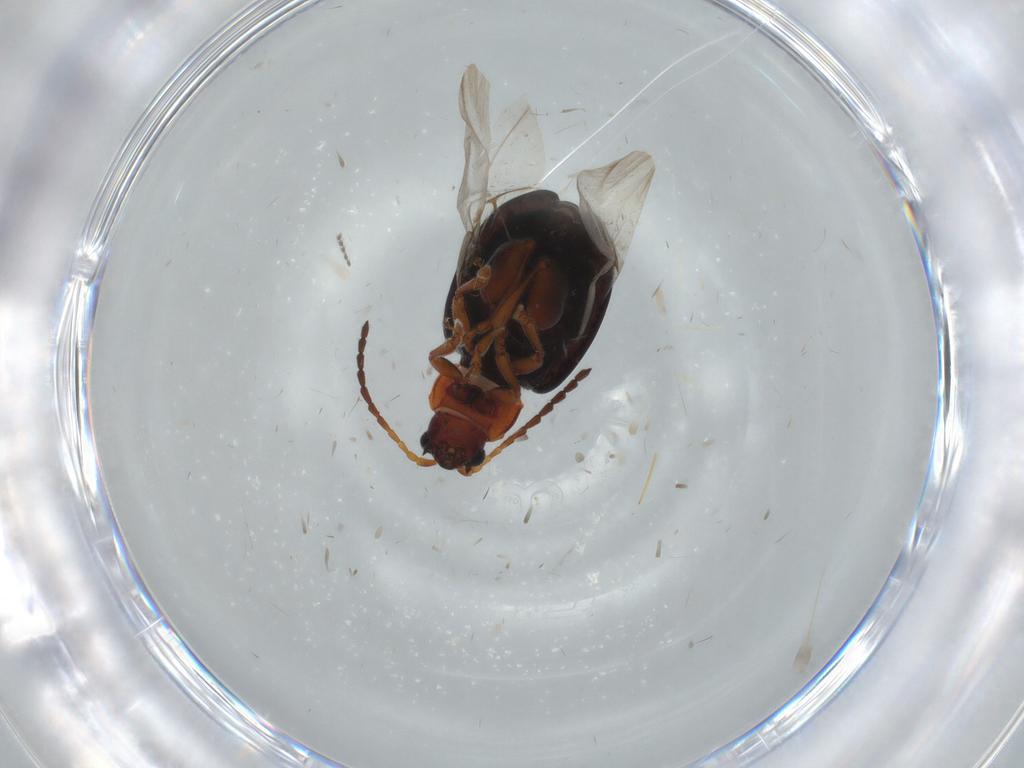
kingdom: Animalia
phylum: Arthropoda
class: Insecta
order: Coleoptera
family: Chrysomelidae
